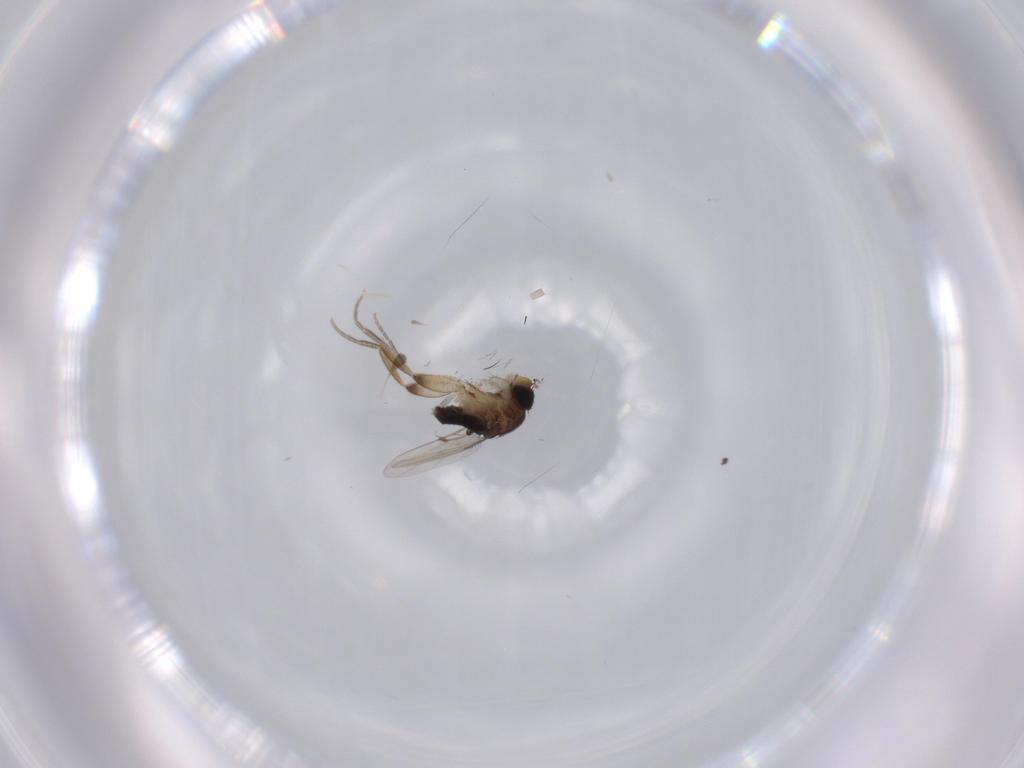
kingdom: Animalia
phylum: Arthropoda
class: Insecta
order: Diptera
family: Phoridae
